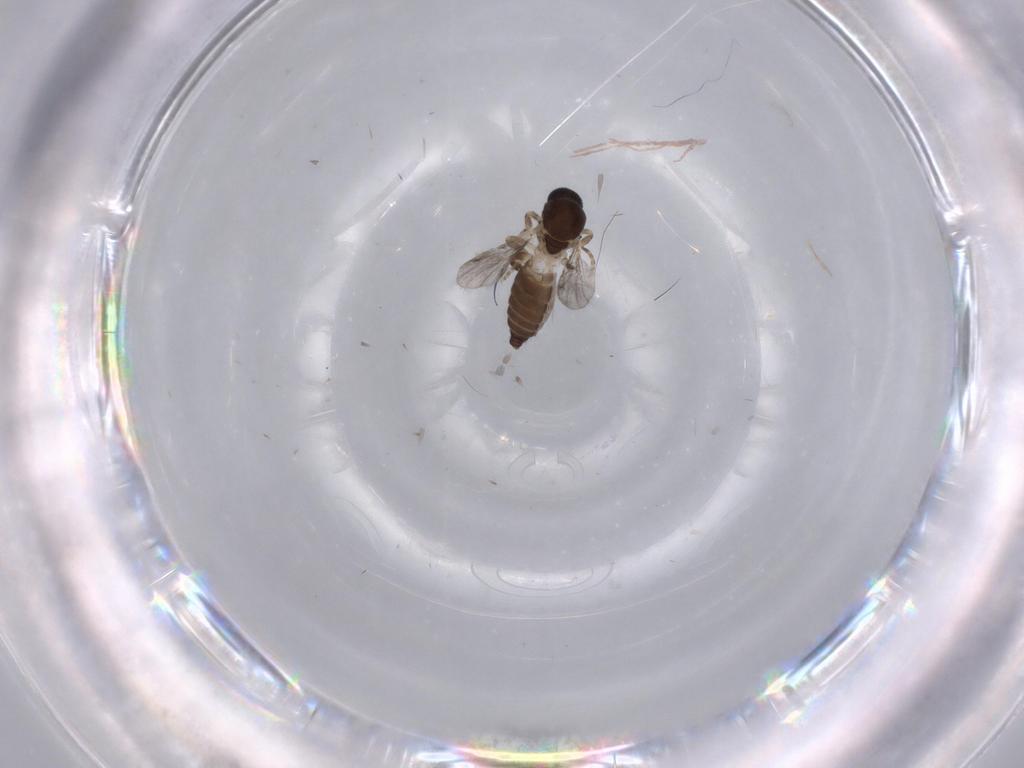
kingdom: Animalia
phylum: Arthropoda
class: Insecta
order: Diptera
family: Ceratopogonidae
